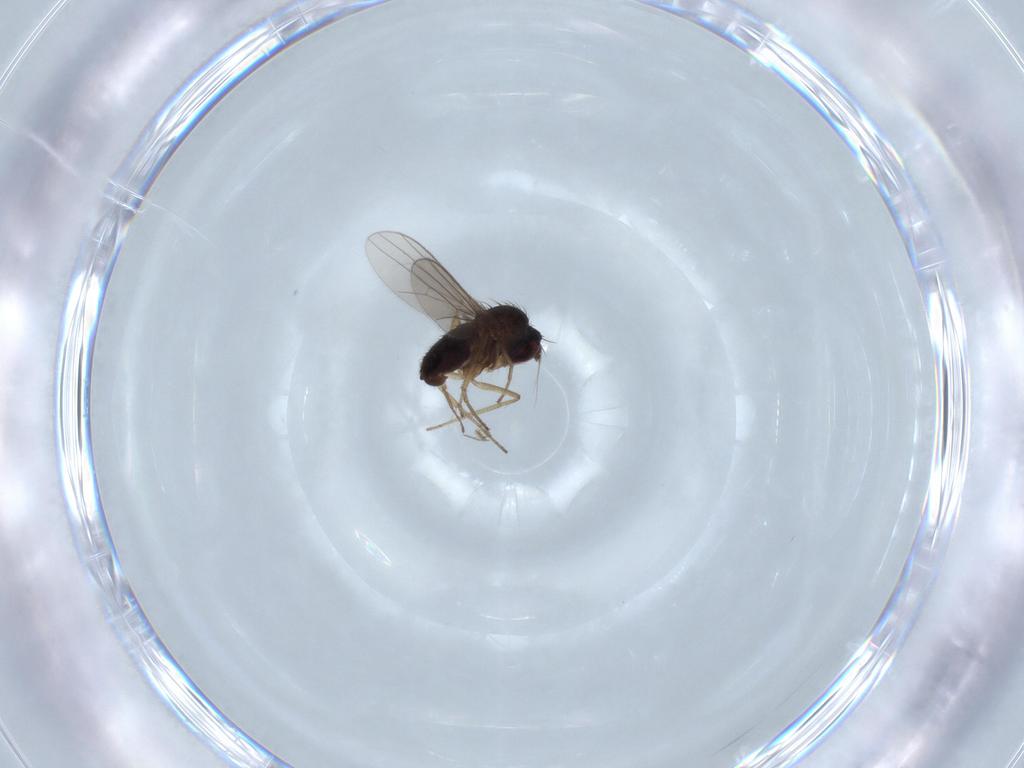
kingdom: Animalia
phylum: Arthropoda
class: Insecta
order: Diptera
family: Dolichopodidae
